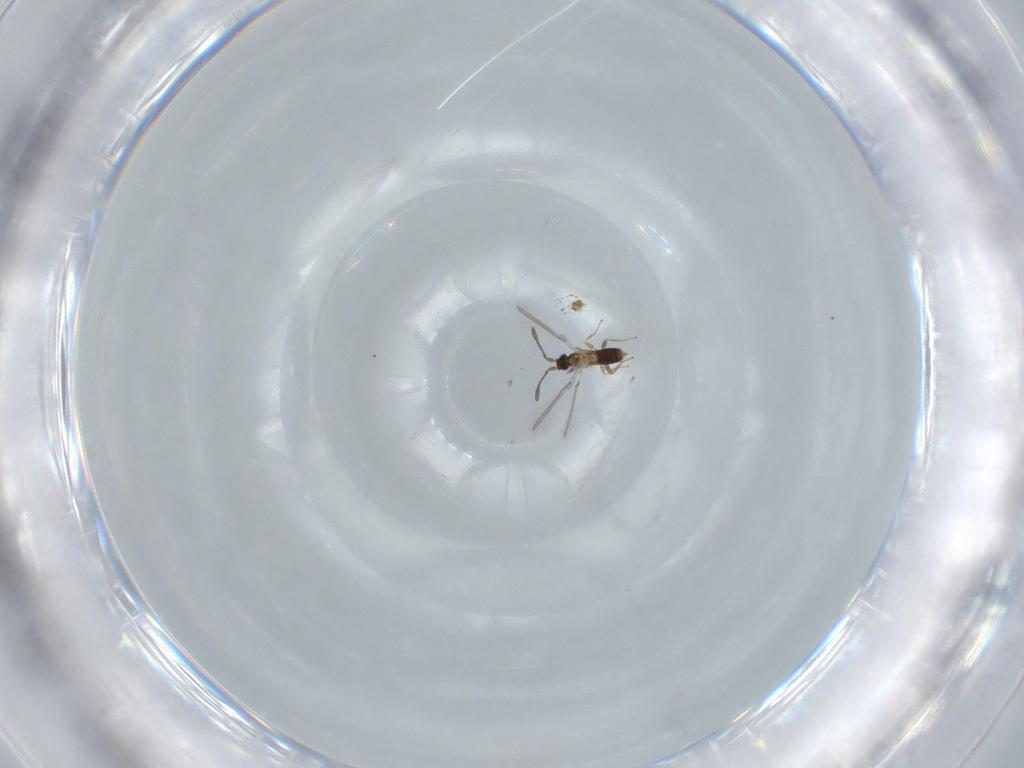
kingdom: Animalia
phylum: Arthropoda
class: Insecta
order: Hymenoptera
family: Mymaridae
